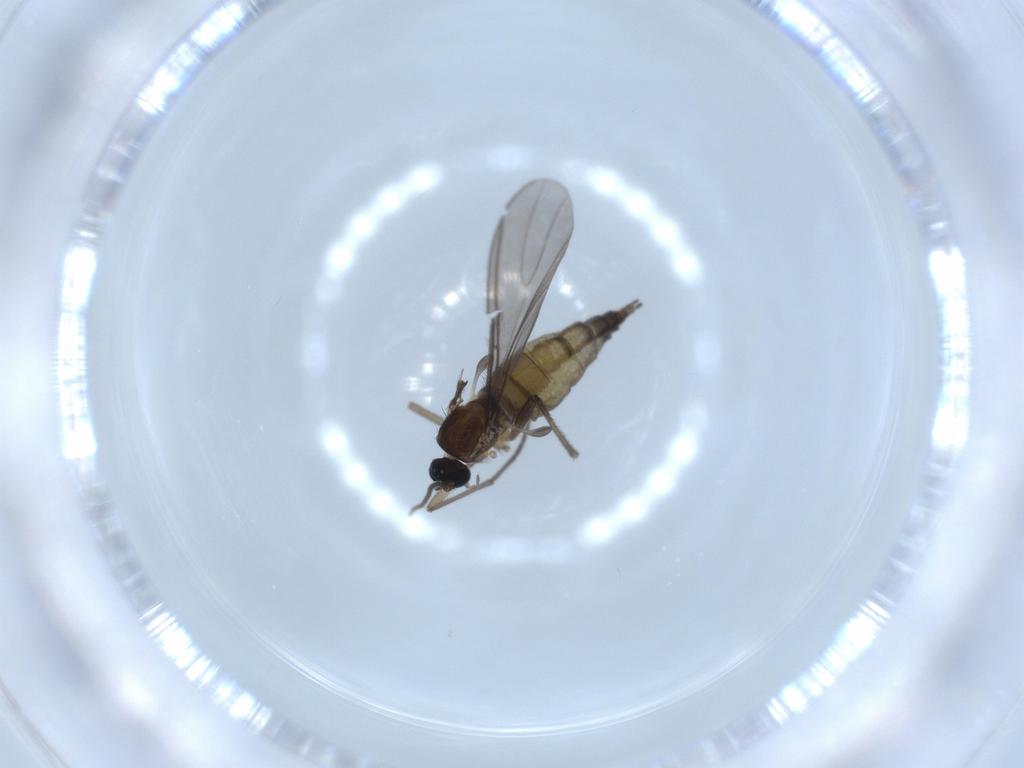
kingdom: Animalia
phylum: Arthropoda
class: Insecta
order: Diptera
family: Sciaridae
